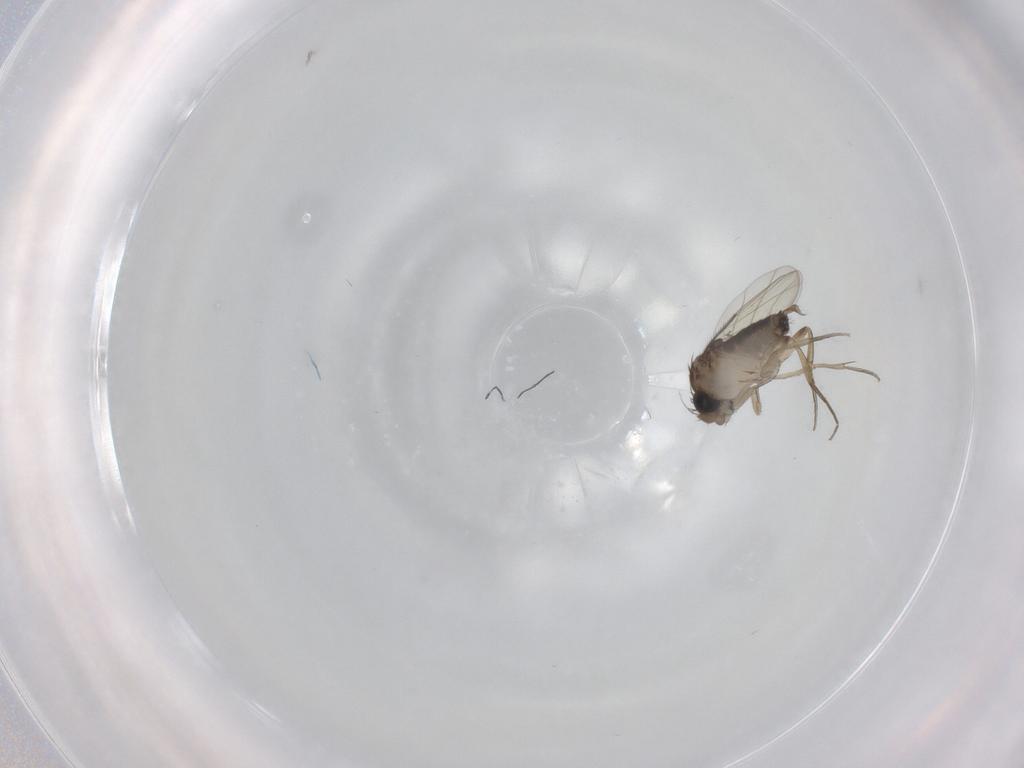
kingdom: Animalia
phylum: Arthropoda
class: Insecta
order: Diptera
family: Phoridae
